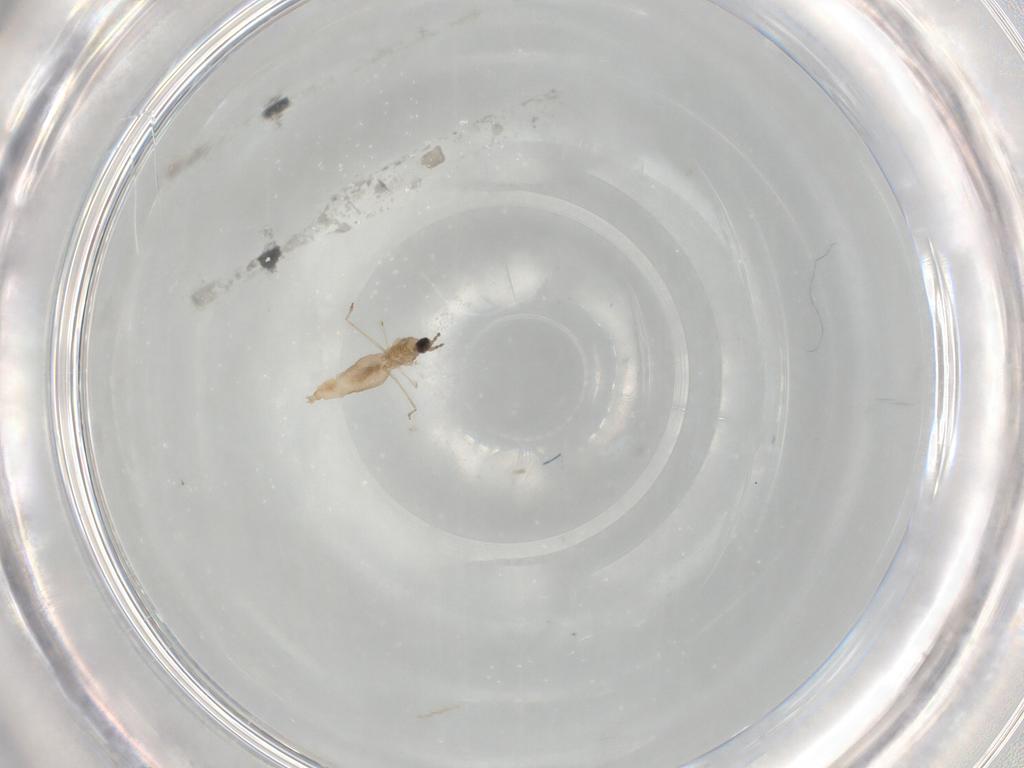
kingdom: Animalia
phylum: Arthropoda
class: Insecta
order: Diptera
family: Cecidomyiidae
